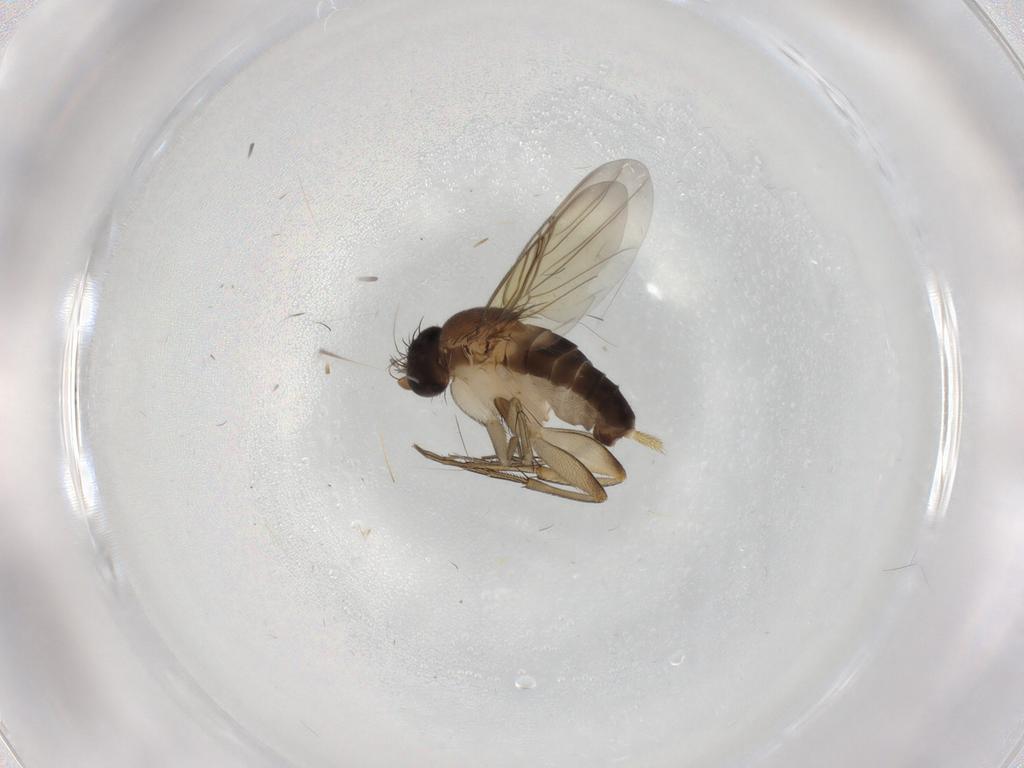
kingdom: Animalia
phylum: Arthropoda
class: Insecta
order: Diptera
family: Phoridae
